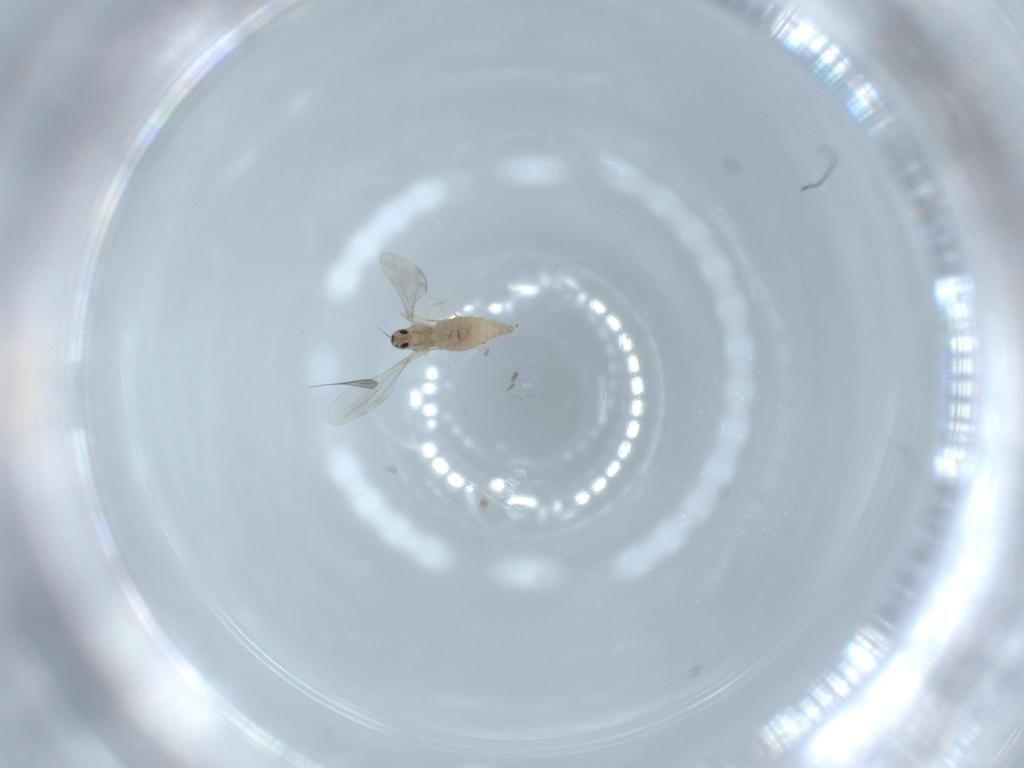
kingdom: Animalia
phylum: Arthropoda
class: Insecta
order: Diptera
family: Cecidomyiidae
